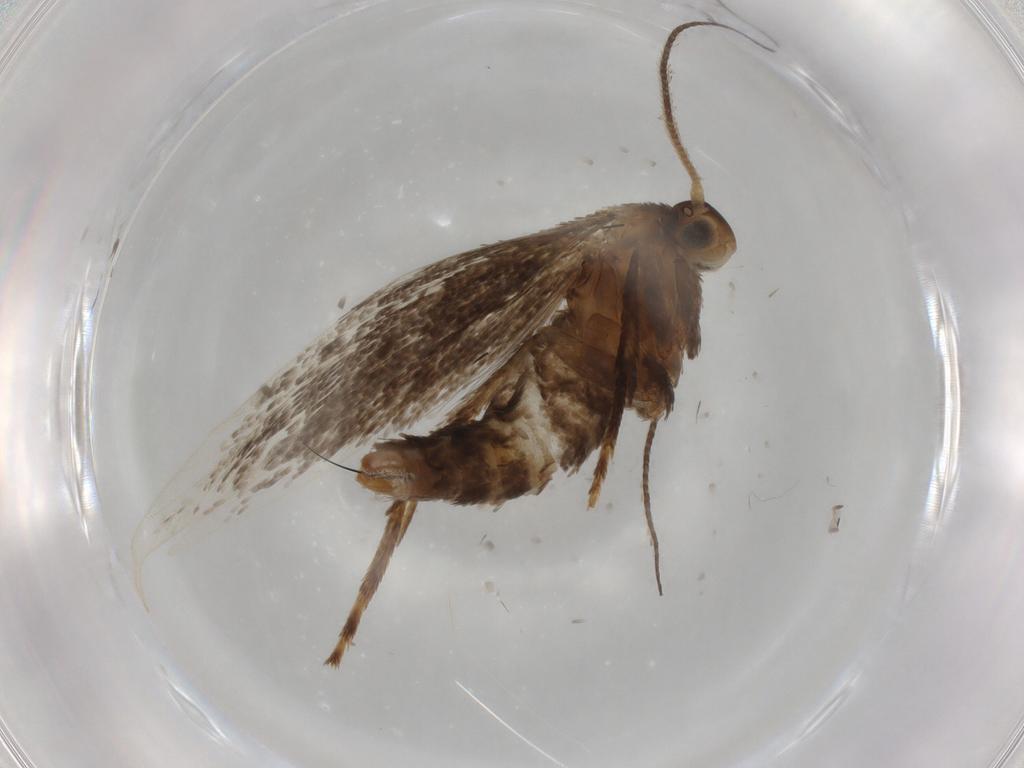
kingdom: Animalia
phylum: Arthropoda
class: Insecta
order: Lepidoptera
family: Douglasiidae
